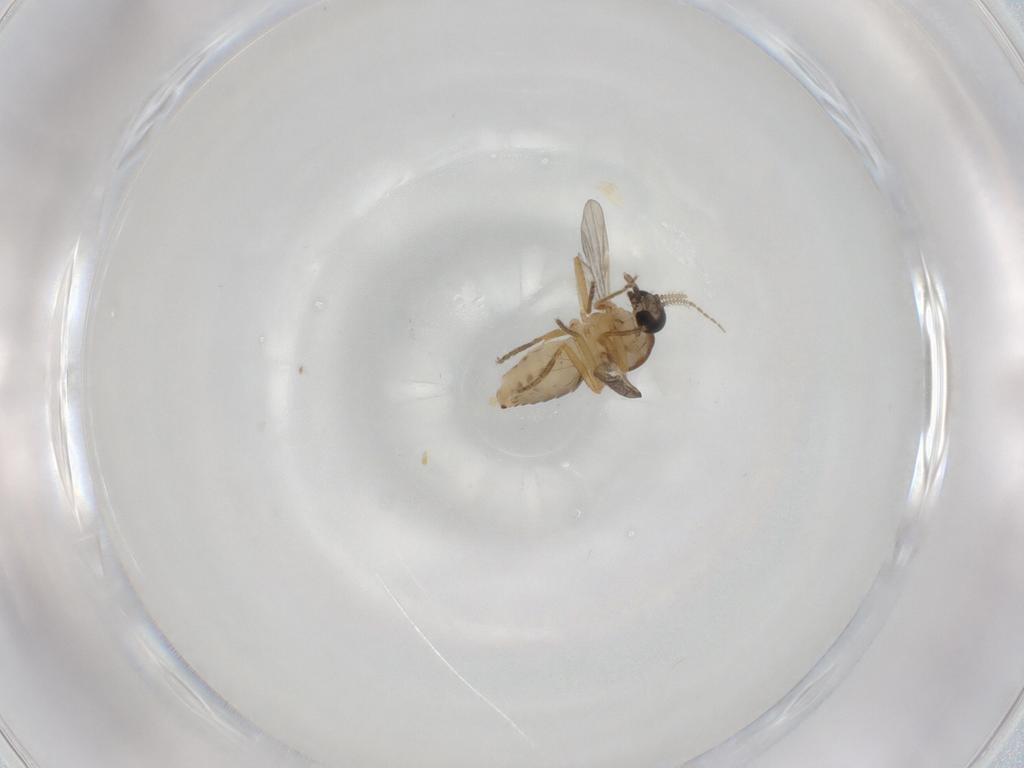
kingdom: Animalia
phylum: Arthropoda
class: Insecta
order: Diptera
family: Ceratopogonidae
